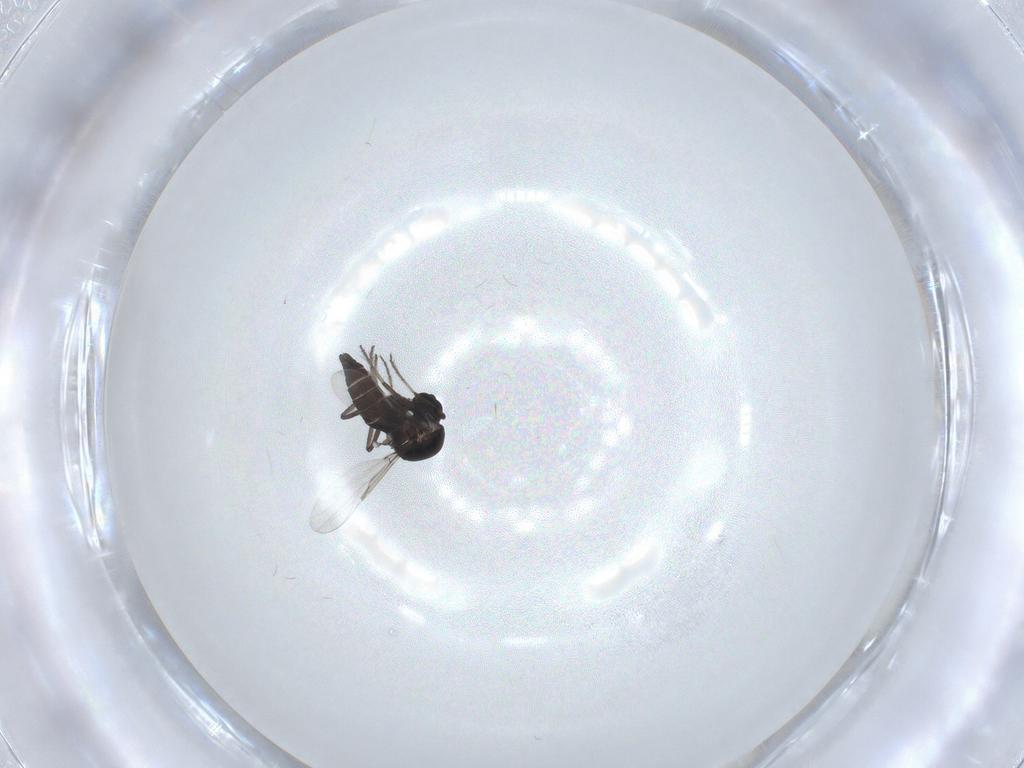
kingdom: Animalia
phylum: Arthropoda
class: Insecta
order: Diptera
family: Ceratopogonidae
